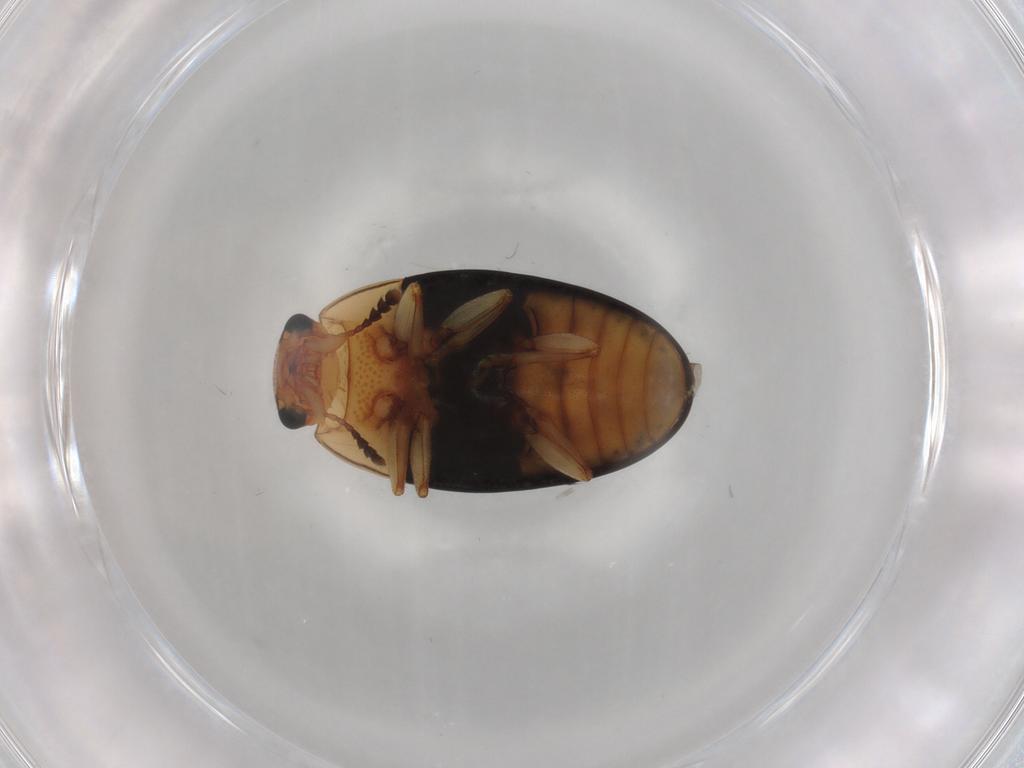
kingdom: Animalia
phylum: Arthropoda
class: Insecta
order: Coleoptera
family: Erotylidae
